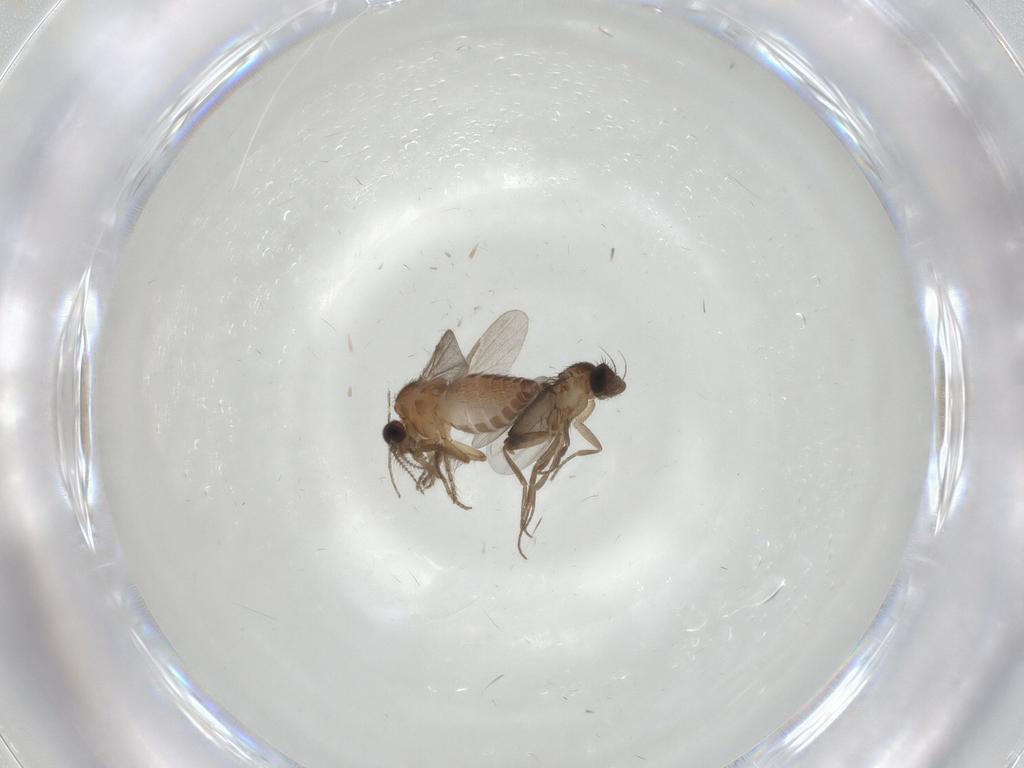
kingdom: Animalia
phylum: Arthropoda
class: Insecta
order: Diptera
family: Phoridae
